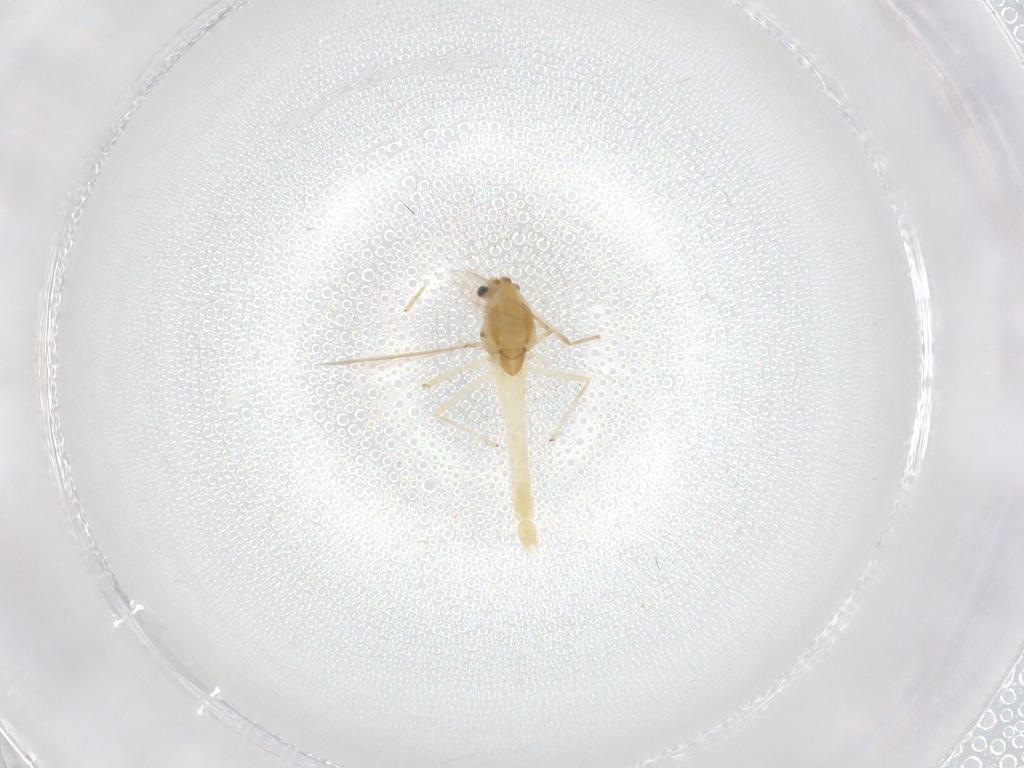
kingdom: Animalia
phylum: Arthropoda
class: Insecta
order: Diptera
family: Chironomidae
